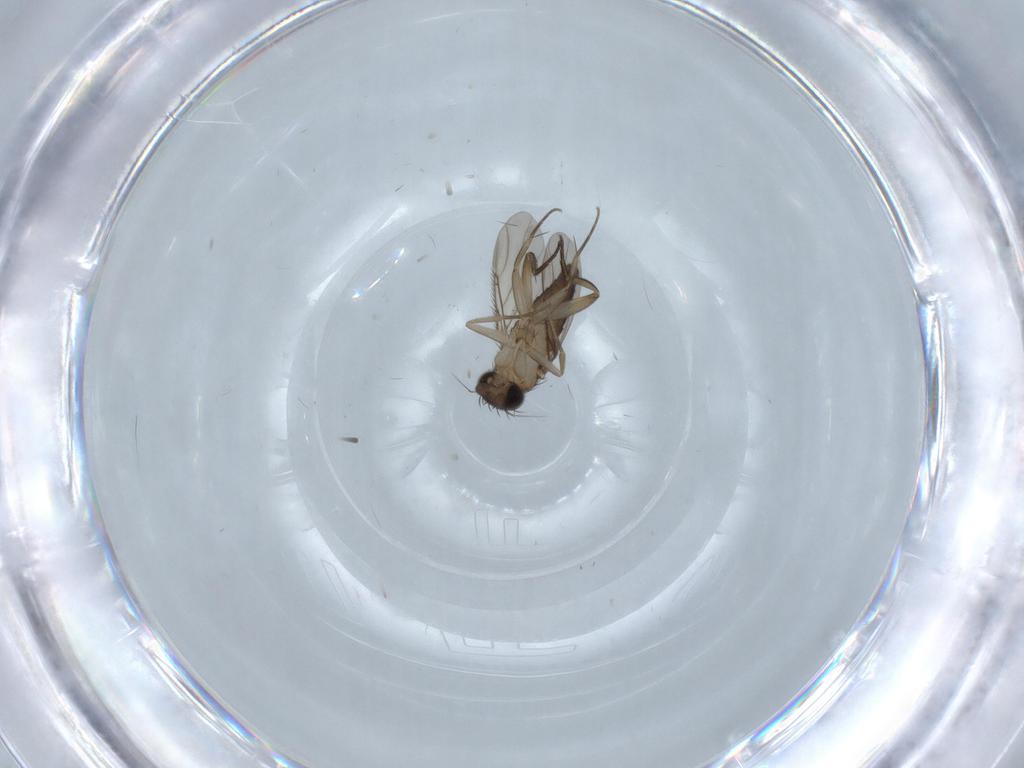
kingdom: Animalia
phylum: Arthropoda
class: Insecta
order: Diptera
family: Phoridae
